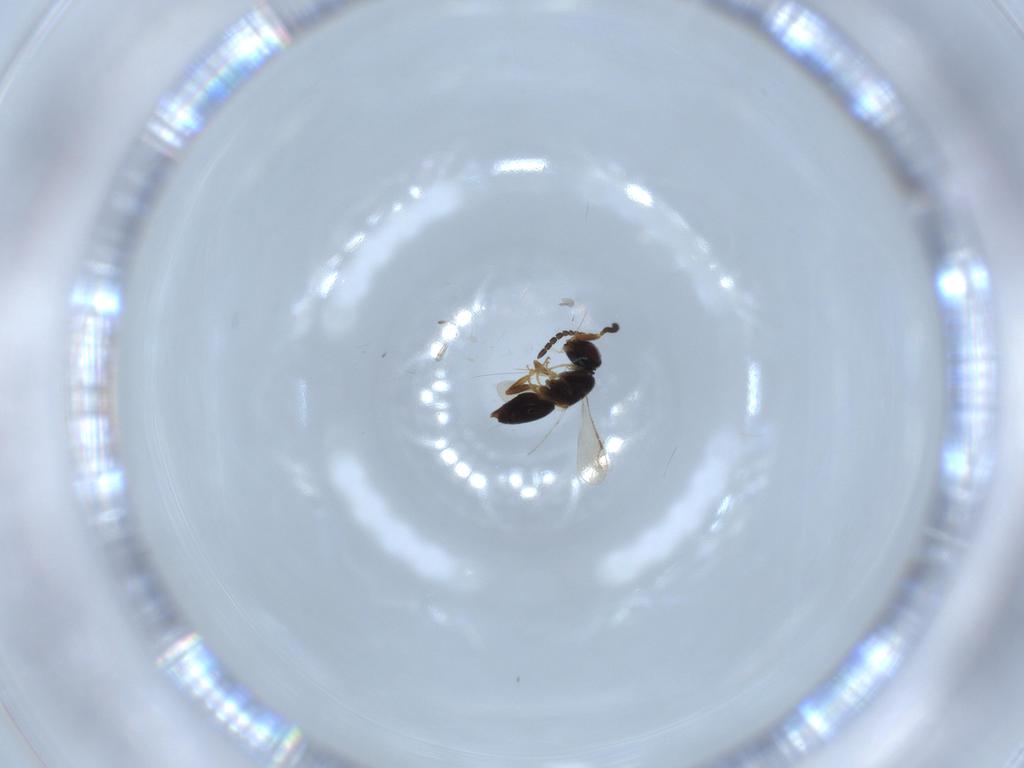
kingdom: Animalia
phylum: Arthropoda
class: Insecta
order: Hymenoptera
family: Ceraphronidae
